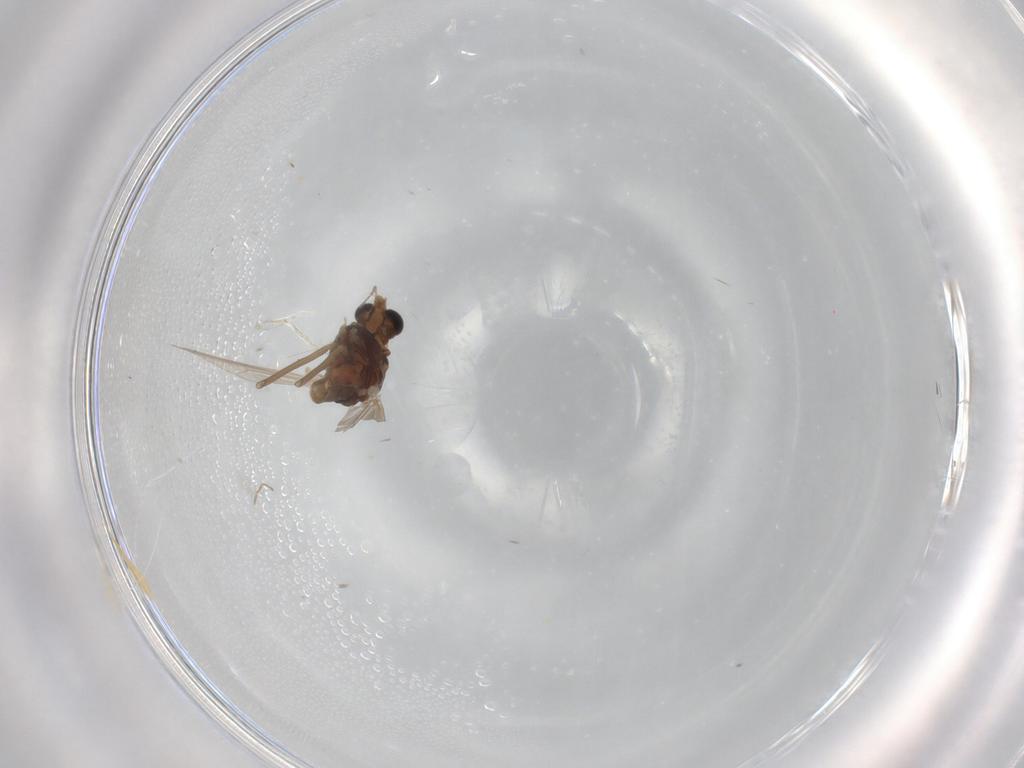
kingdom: Animalia
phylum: Arthropoda
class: Insecta
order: Diptera
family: Chironomidae
